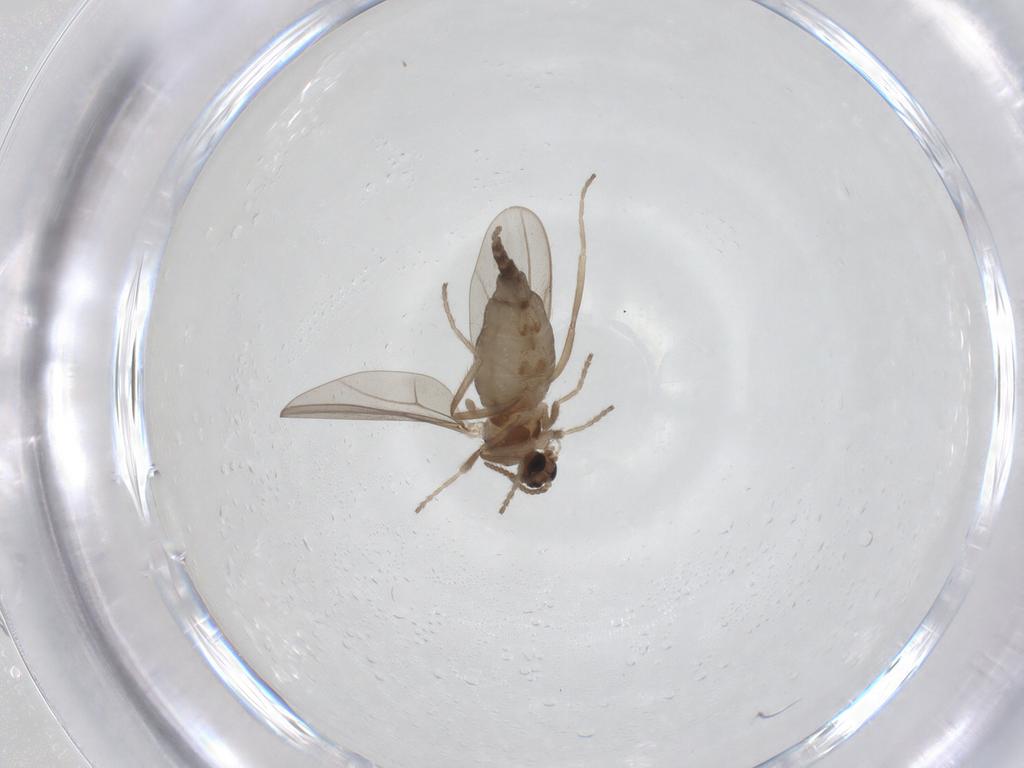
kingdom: Animalia
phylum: Arthropoda
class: Insecta
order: Diptera
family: Cecidomyiidae
